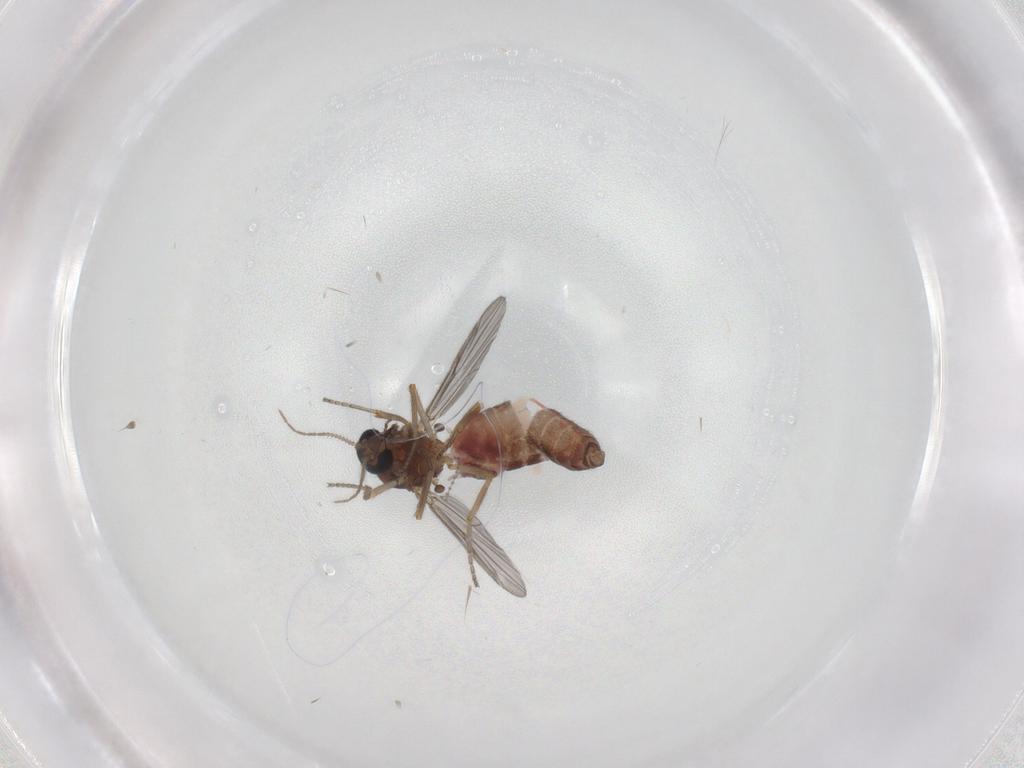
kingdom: Animalia
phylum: Arthropoda
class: Insecta
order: Diptera
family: Ceratopogonidae
